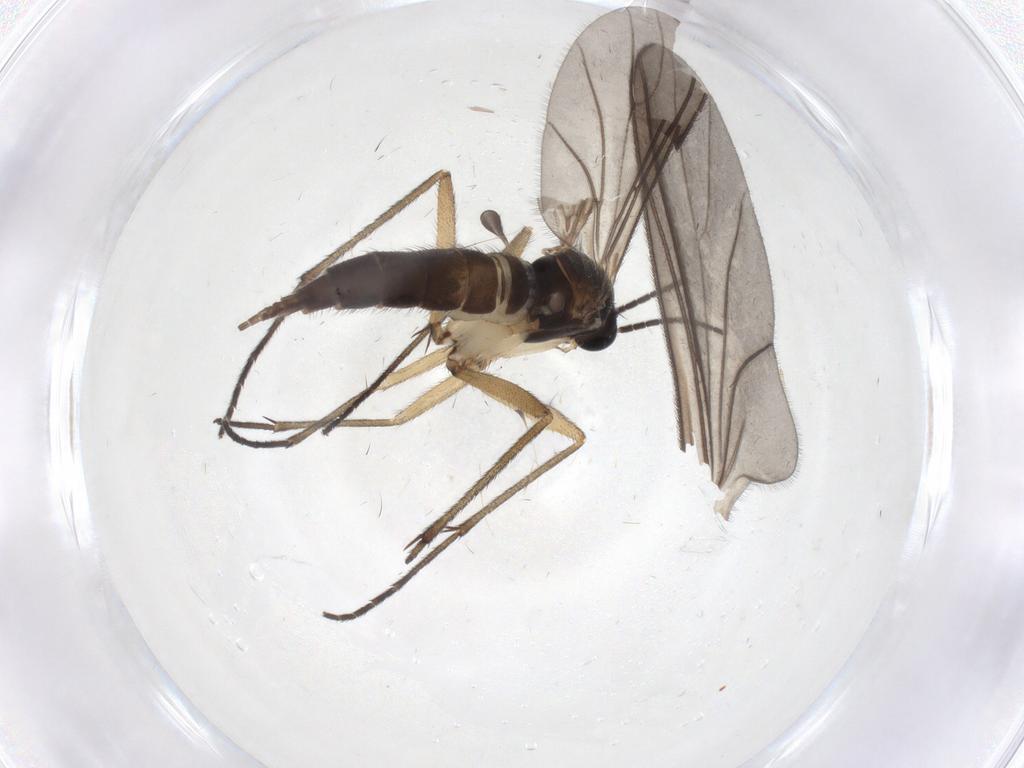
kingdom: Animalia
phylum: Arthropoda
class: Insecta
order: Diptera
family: Sciaridae
